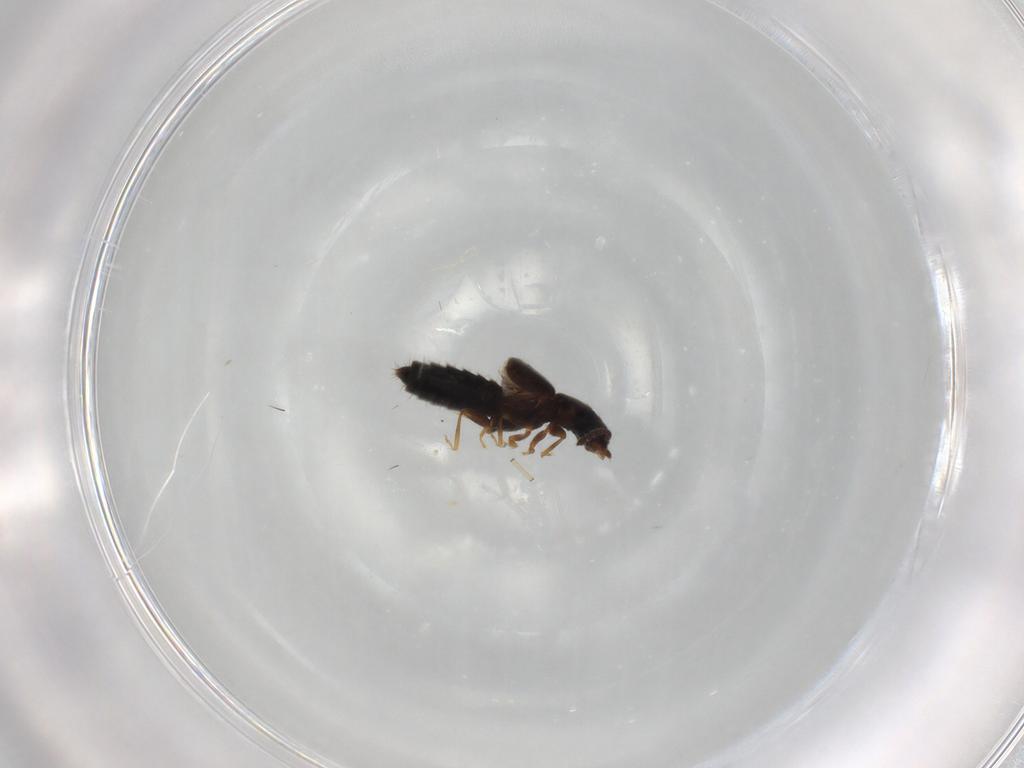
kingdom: Animalia
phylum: Arthropoda
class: Insecta
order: Coleoptera
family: Staphylinidae
